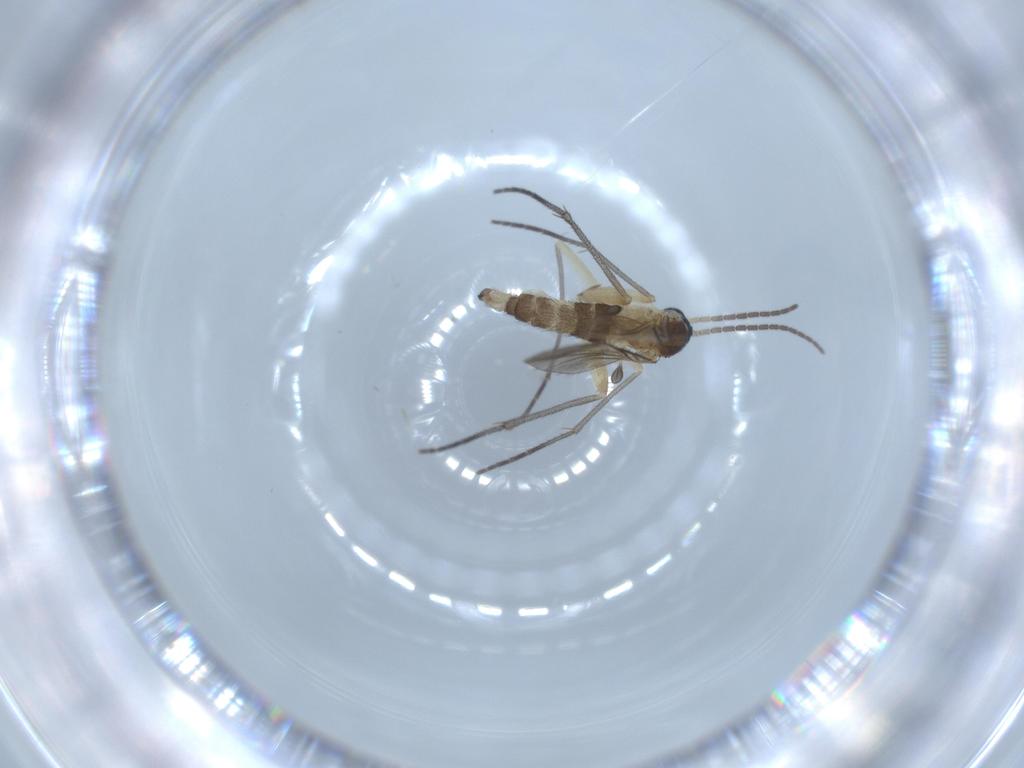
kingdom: Animalia
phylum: Arthropoda
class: Insecta
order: Diptera
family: Sciaridae
